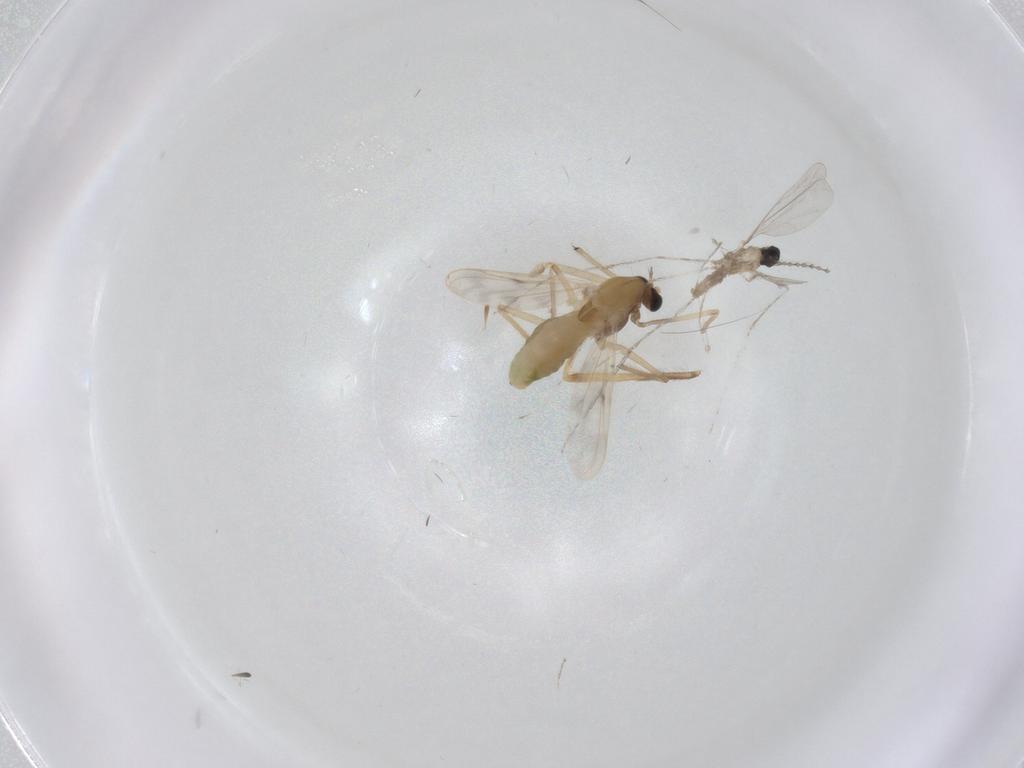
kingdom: Animalia
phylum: Arthropoda
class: Insecta
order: Diptera
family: Chironomidae
